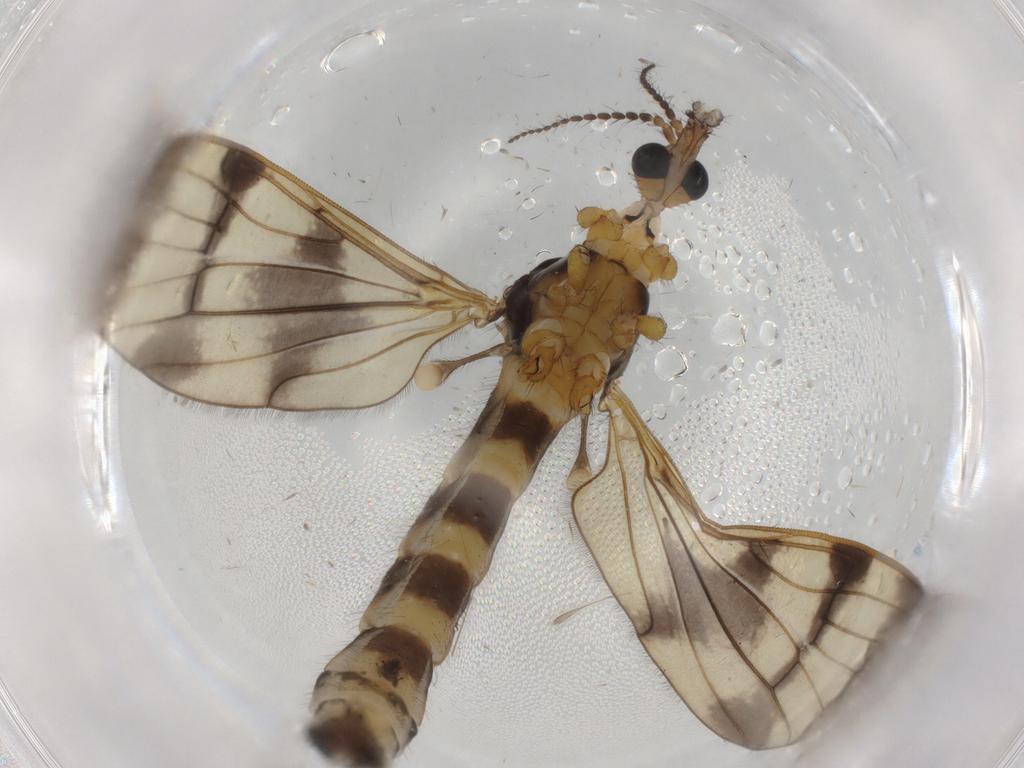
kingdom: Animalia
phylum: Arthropoda
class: Insecta
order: Diptera
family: Limoniidae
